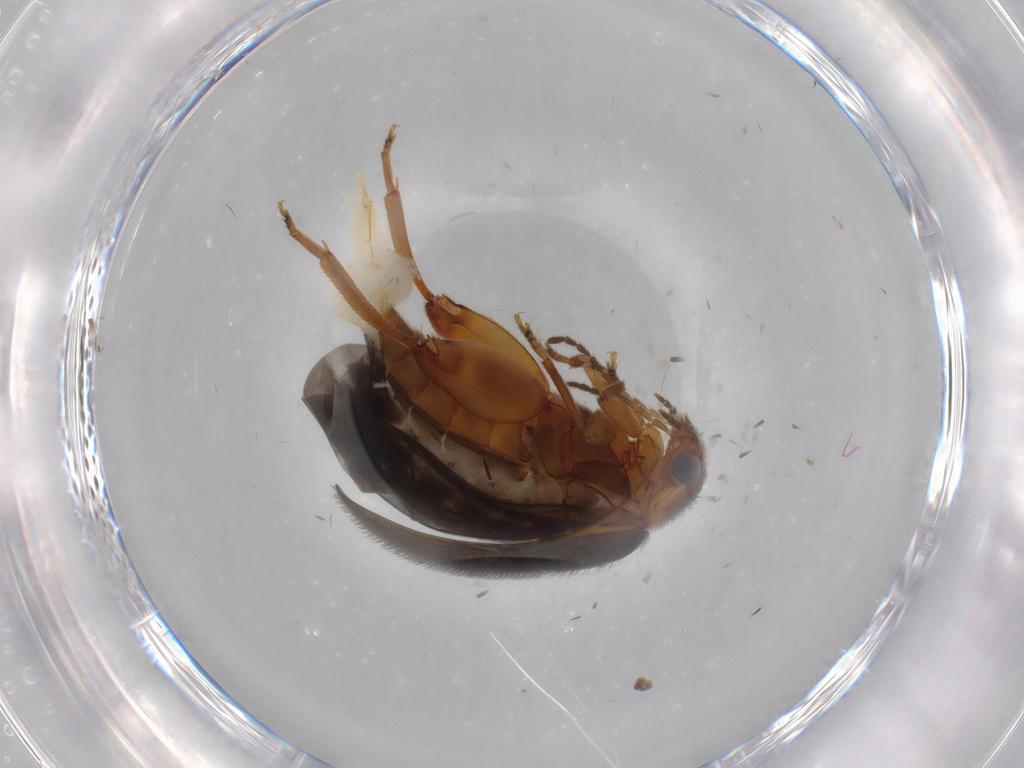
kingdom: Animalia
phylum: Arthropoda
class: Insecta
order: Coleoptera
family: Scirtidae
